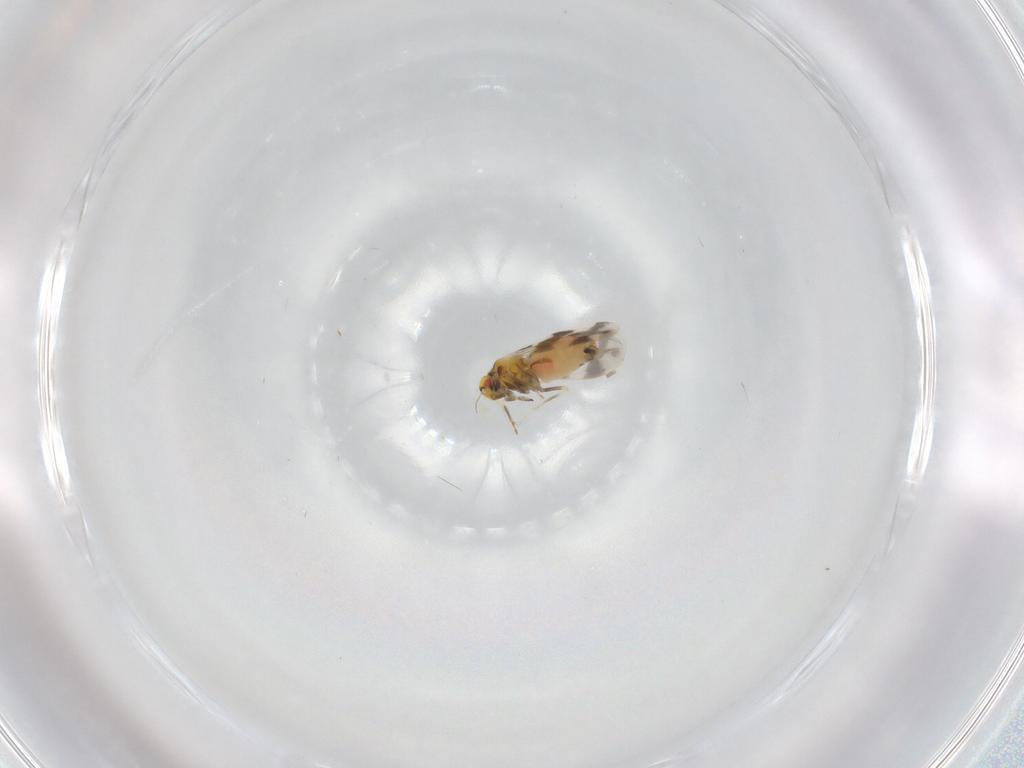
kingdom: Animalia
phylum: Arthropoda
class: Insecta
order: Hemiptera
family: Aleyrodidae
